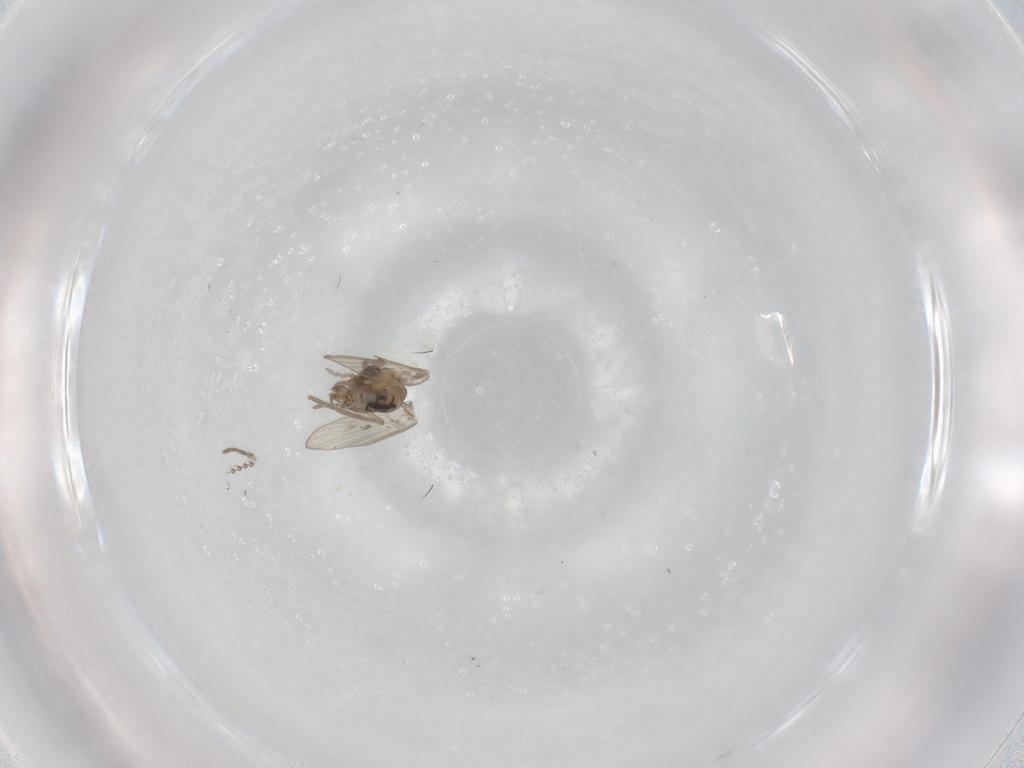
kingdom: Animalia
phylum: Arthropoda
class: Insecta
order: Diptera
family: Psychodidae
